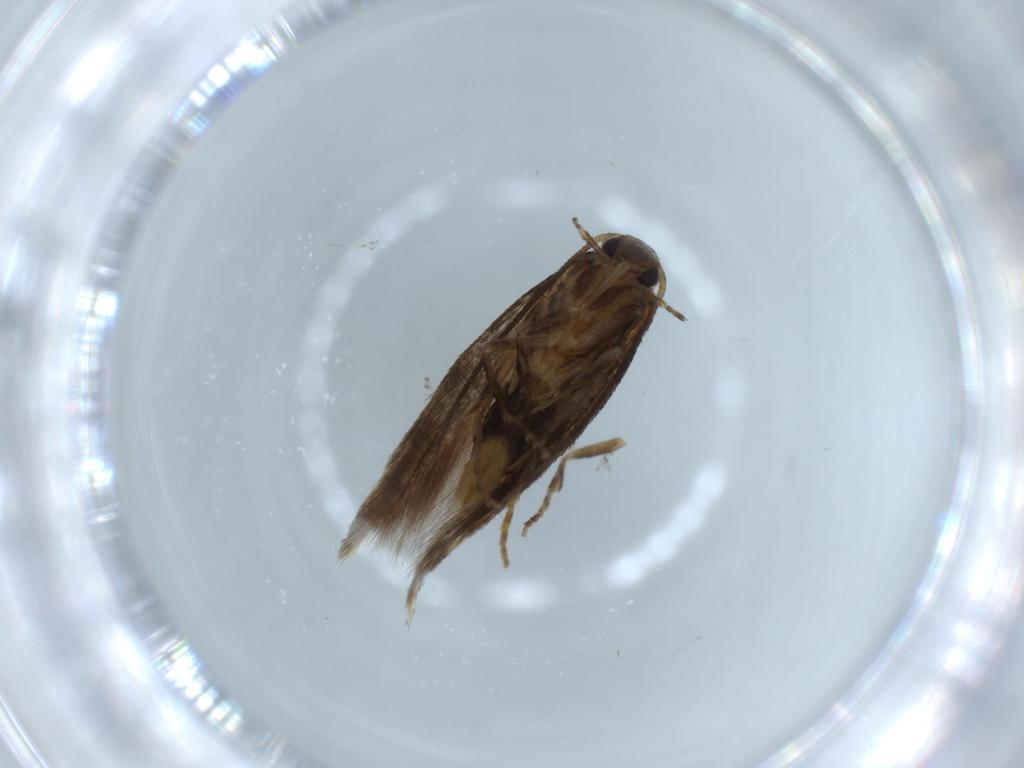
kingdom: Animalia
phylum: Arthropoda
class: Insecta
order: Lepidoptera
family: Elachistidae
